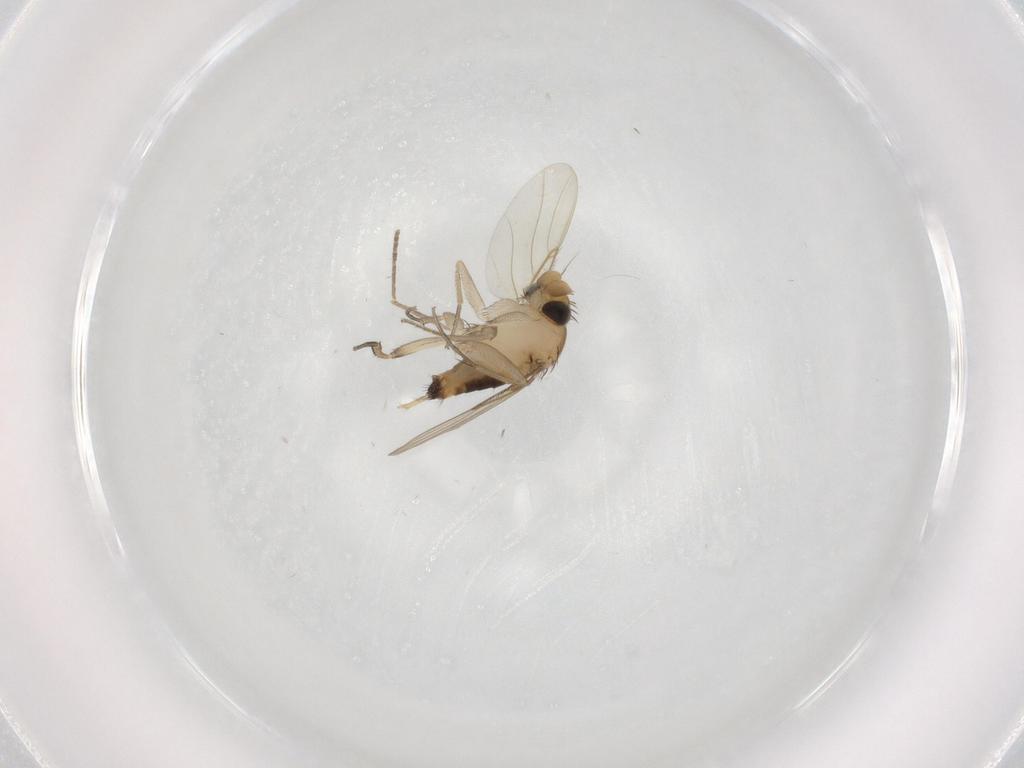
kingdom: Animalia
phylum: Arthropoda
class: Insecta
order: Diptera
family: Phoridae
